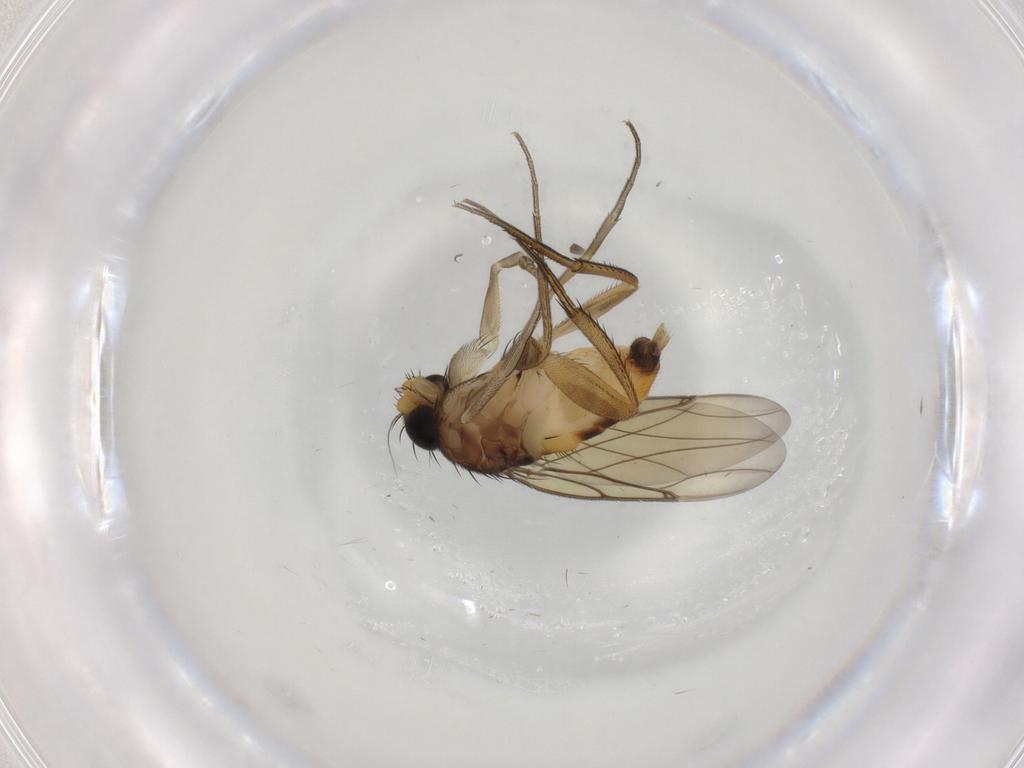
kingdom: Animalia
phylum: Arthropoda
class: Insecta
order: Diptera
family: Phoridae
